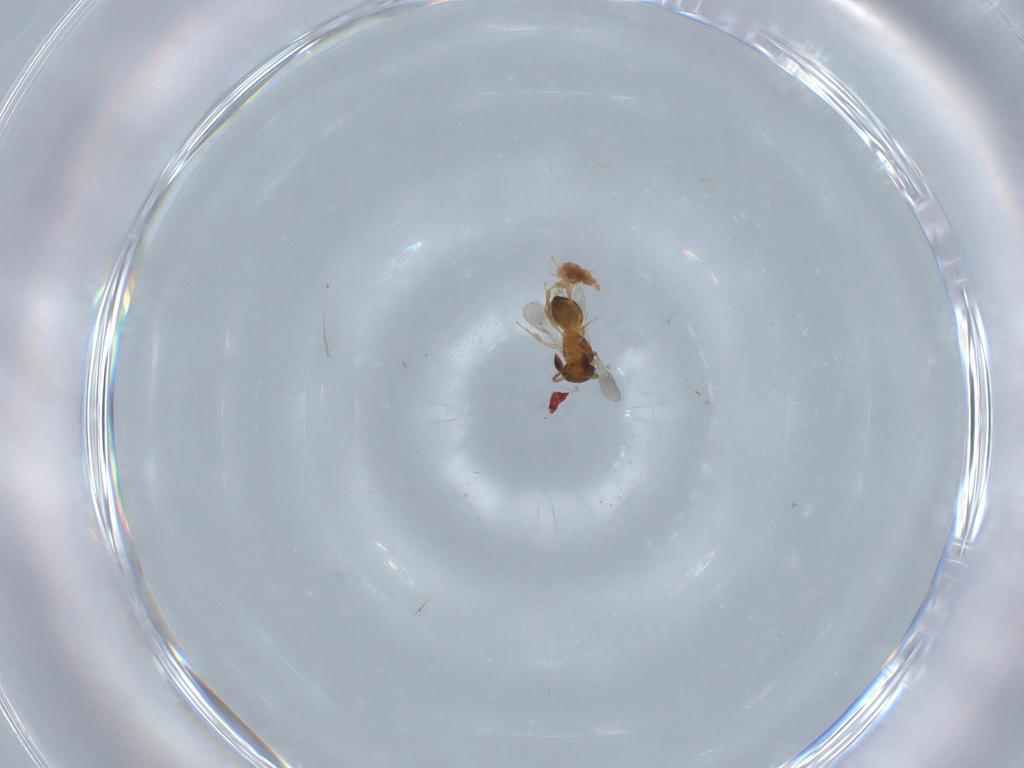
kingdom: Animalia
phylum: Arthropoda
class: Insecta
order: Hymenoptera
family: Scelionidae
